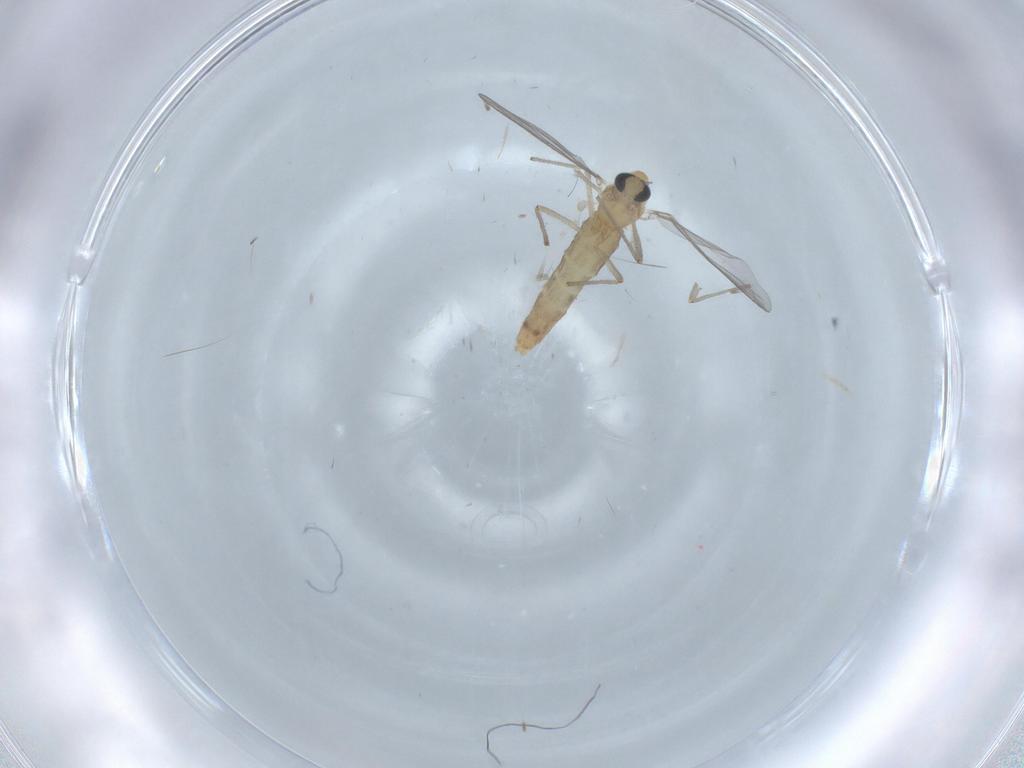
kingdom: Animalia
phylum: Arthropoda
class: Insecta
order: Diptera
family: Chironomidae
